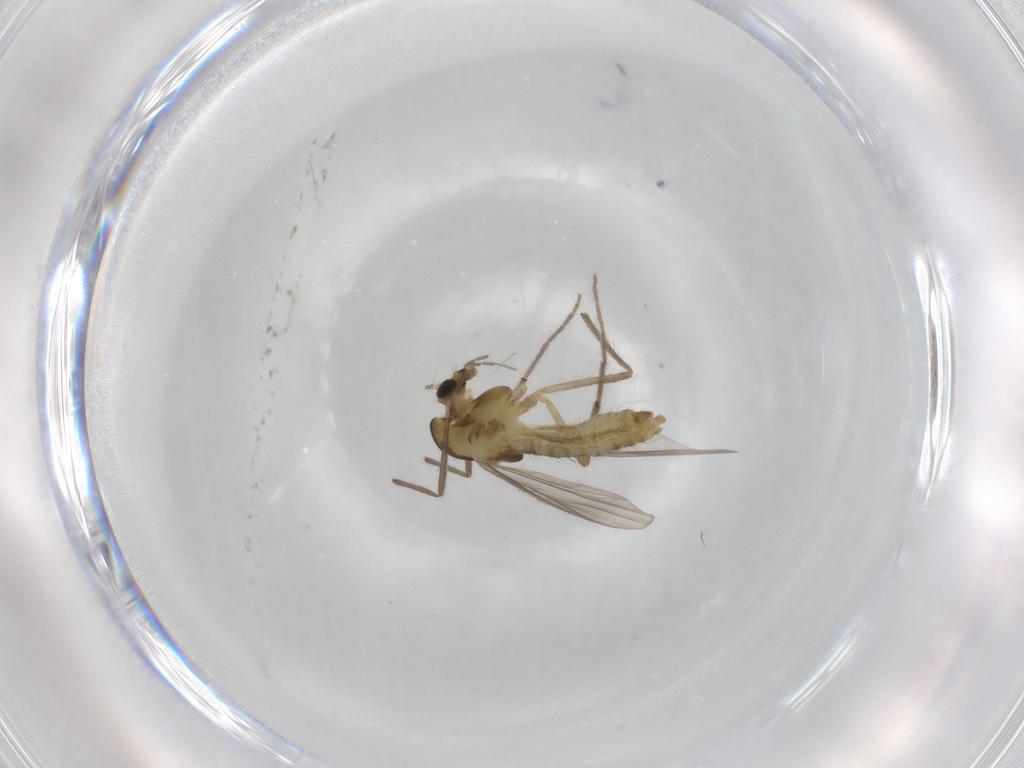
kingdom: Animalia
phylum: Arthropoda
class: Insecta
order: Diptera
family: Chironomidae
